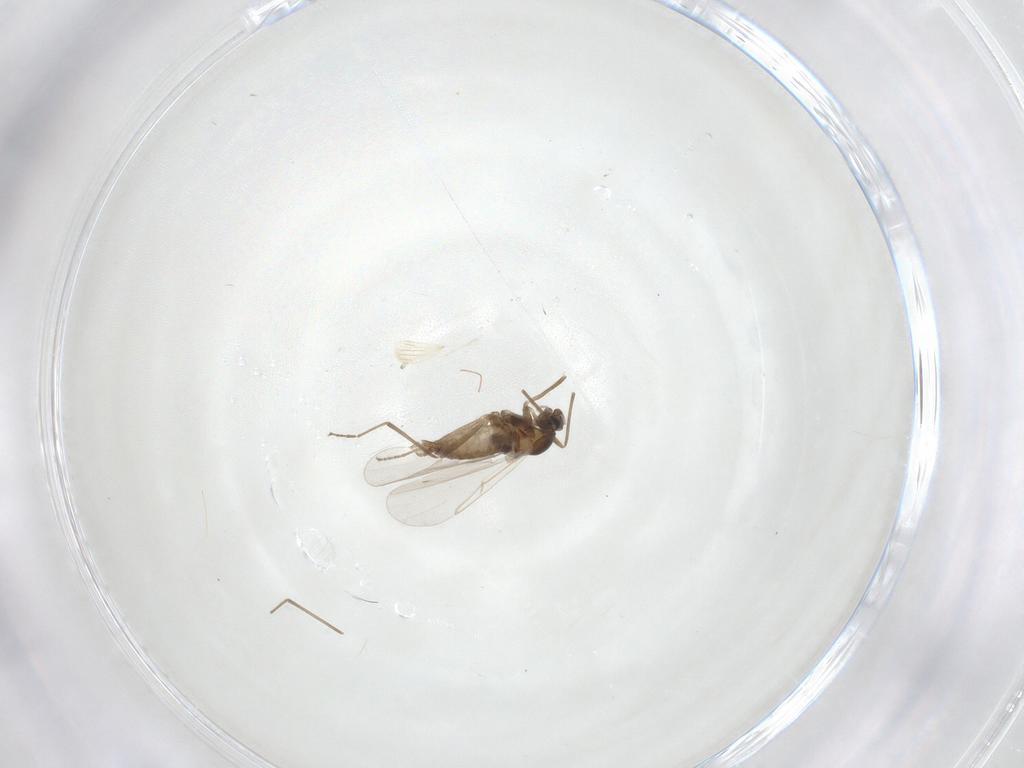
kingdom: Animalia
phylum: Arthropoda
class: Insecta
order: Diptera
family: Cecidomyiidae
